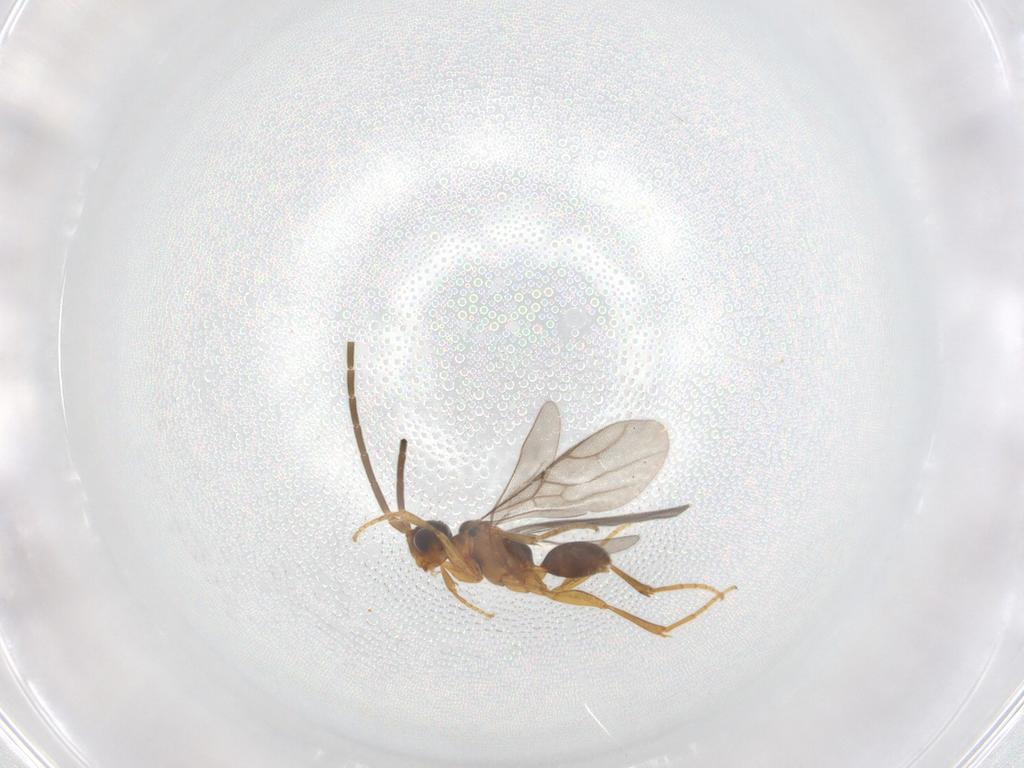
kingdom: Animalia
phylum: Arthropoda
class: Insecta
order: Hymenoptera
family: Embolemidae
